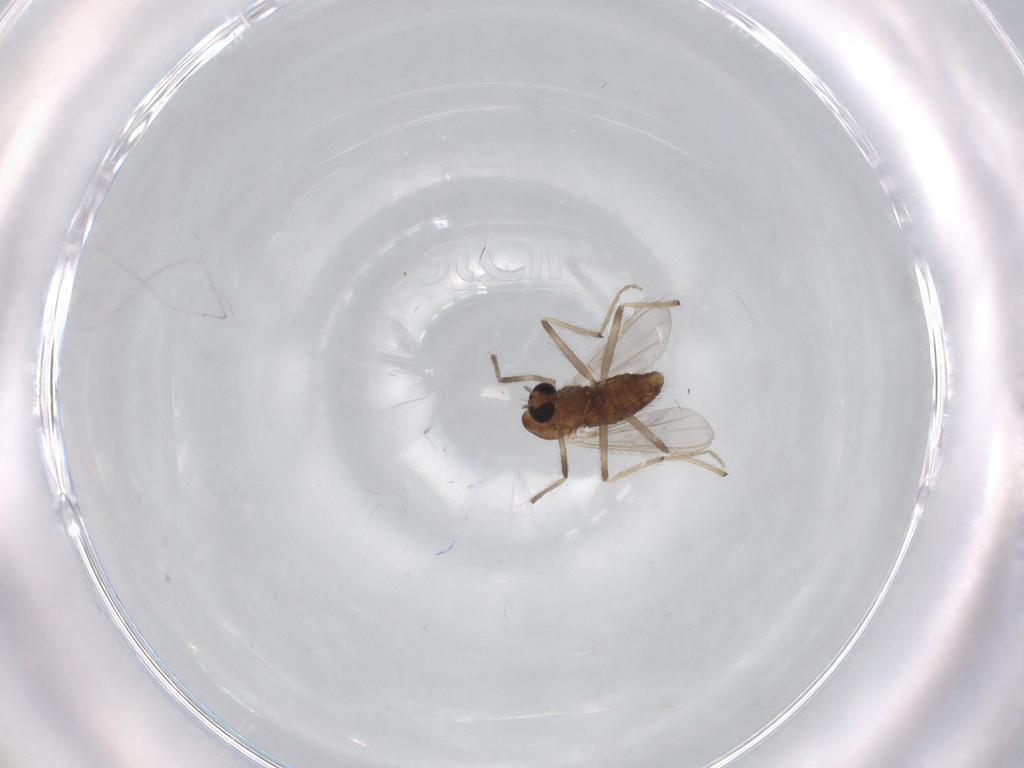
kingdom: Animalia
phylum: Arthropoda
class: Insecta
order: Diptera
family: Chironomidae
